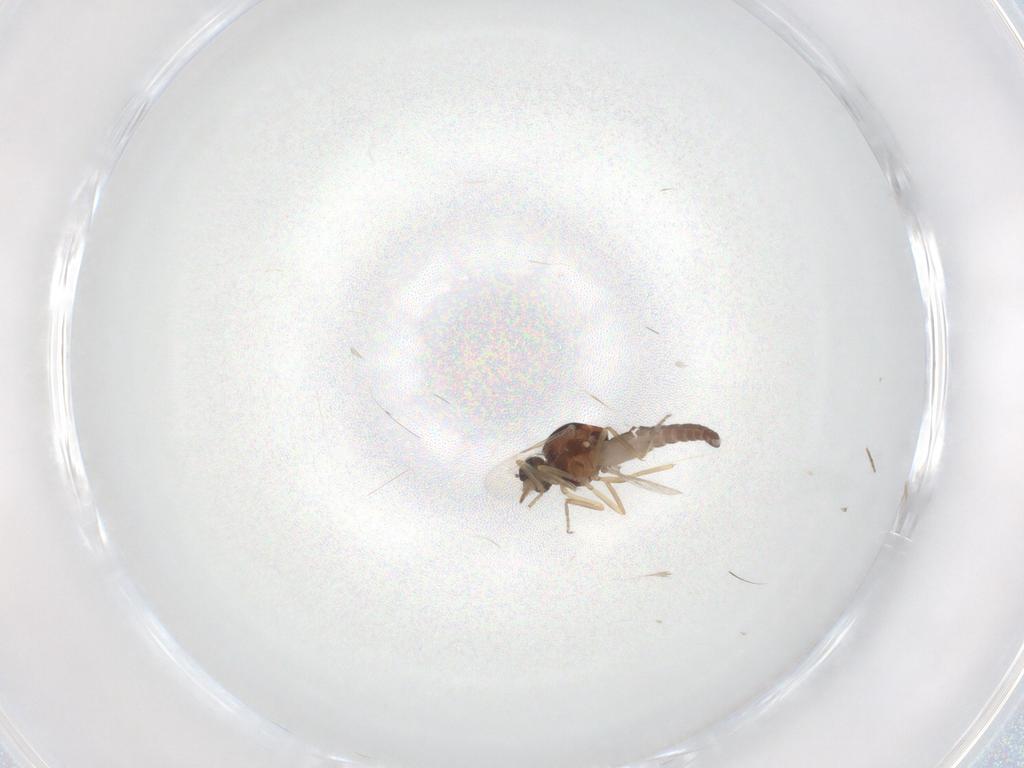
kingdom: Animalia
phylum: Arthropoda
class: Insecta
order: Diptera
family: Ceratopogonidae
